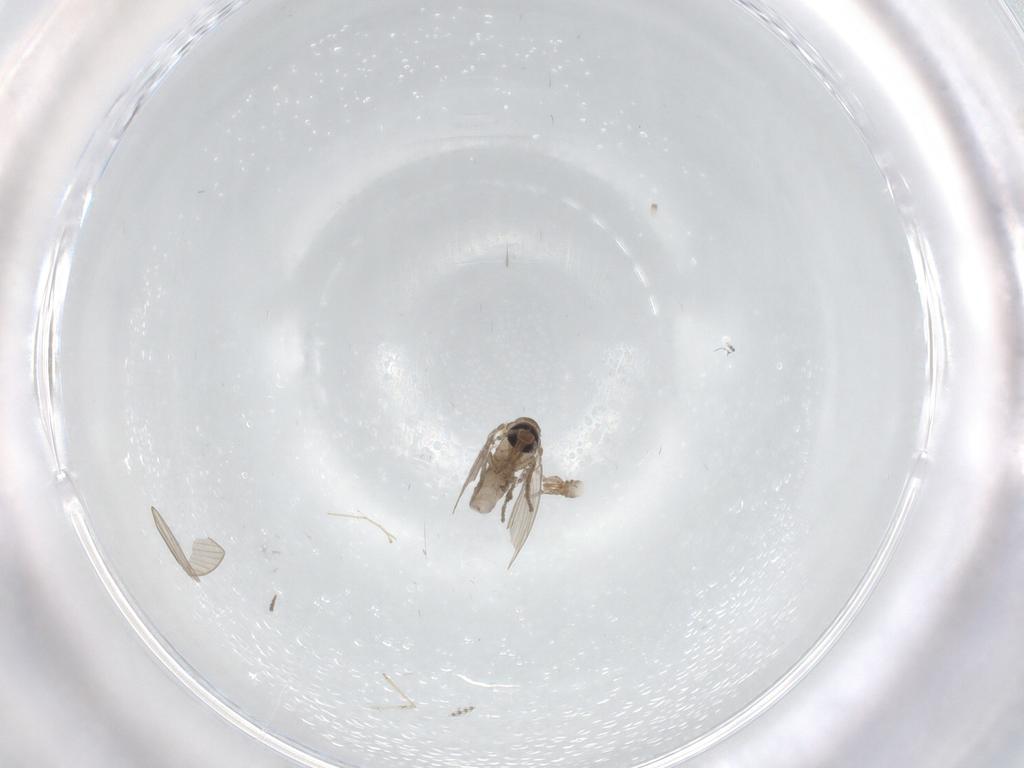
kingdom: Animalia
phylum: Arthropoda
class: Insecta
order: Diptera
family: Psychodidae
